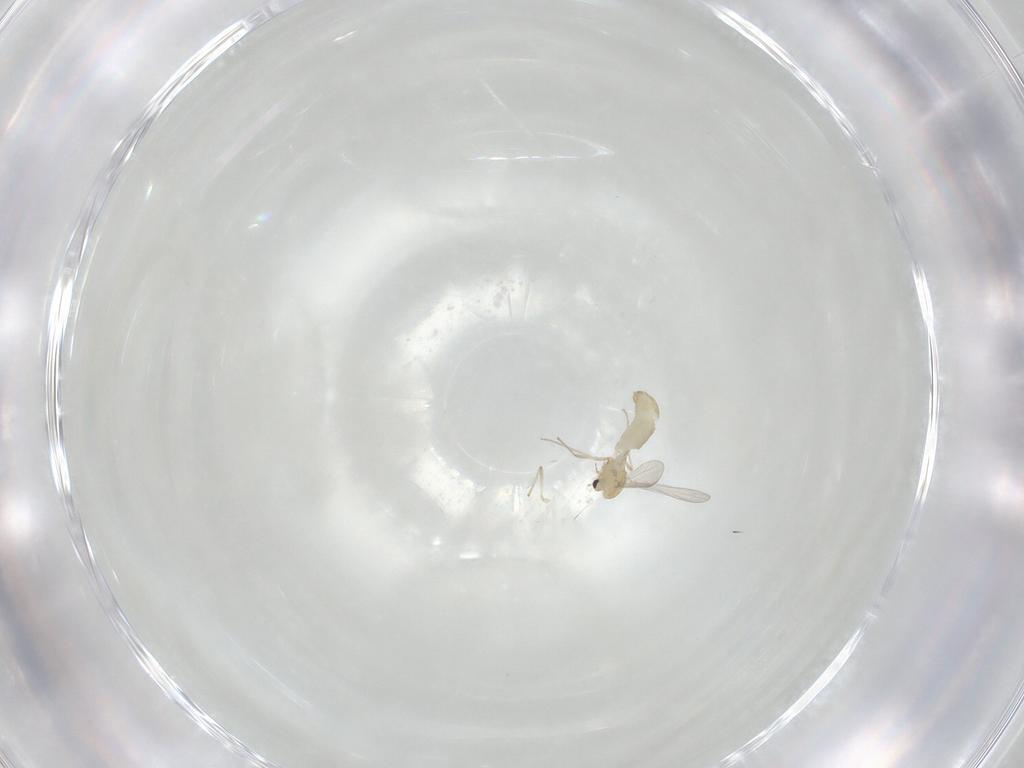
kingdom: Animalia
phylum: Arthropoda
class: Insecta
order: Diptera
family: Chironomidae
